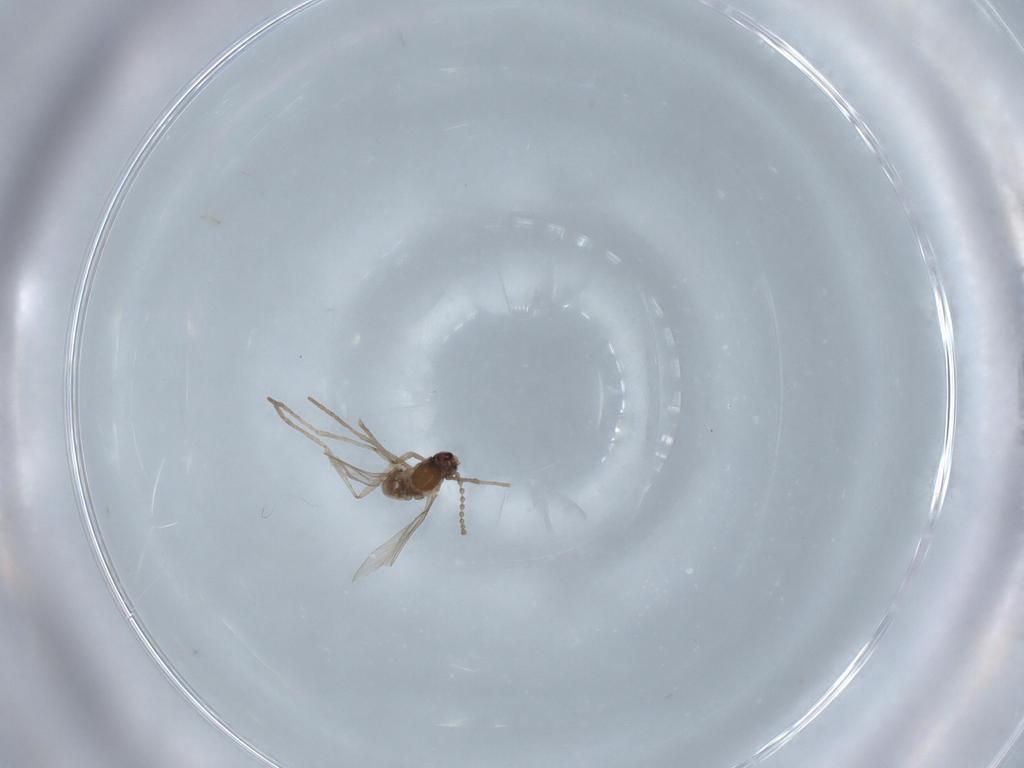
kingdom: Animalia
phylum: Arthropoda
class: Insecta
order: Diptera
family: Cecidomyiidae
